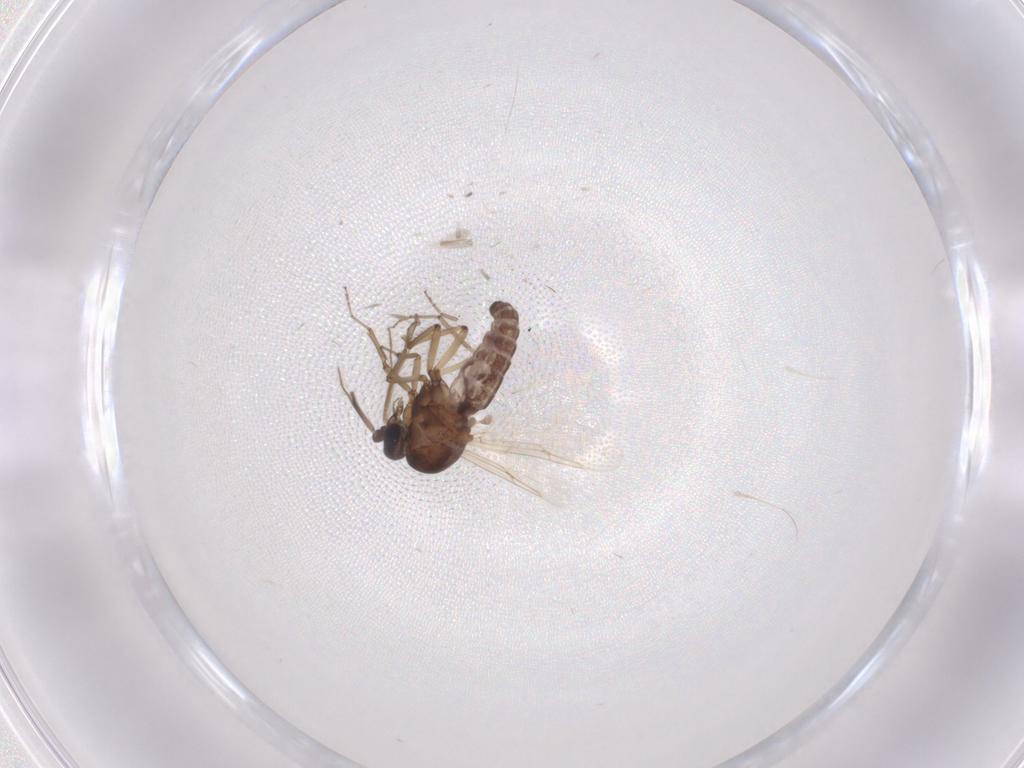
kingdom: Animalia
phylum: Arthropoda
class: Insecta
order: Diptera
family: Ceratopogonidae
